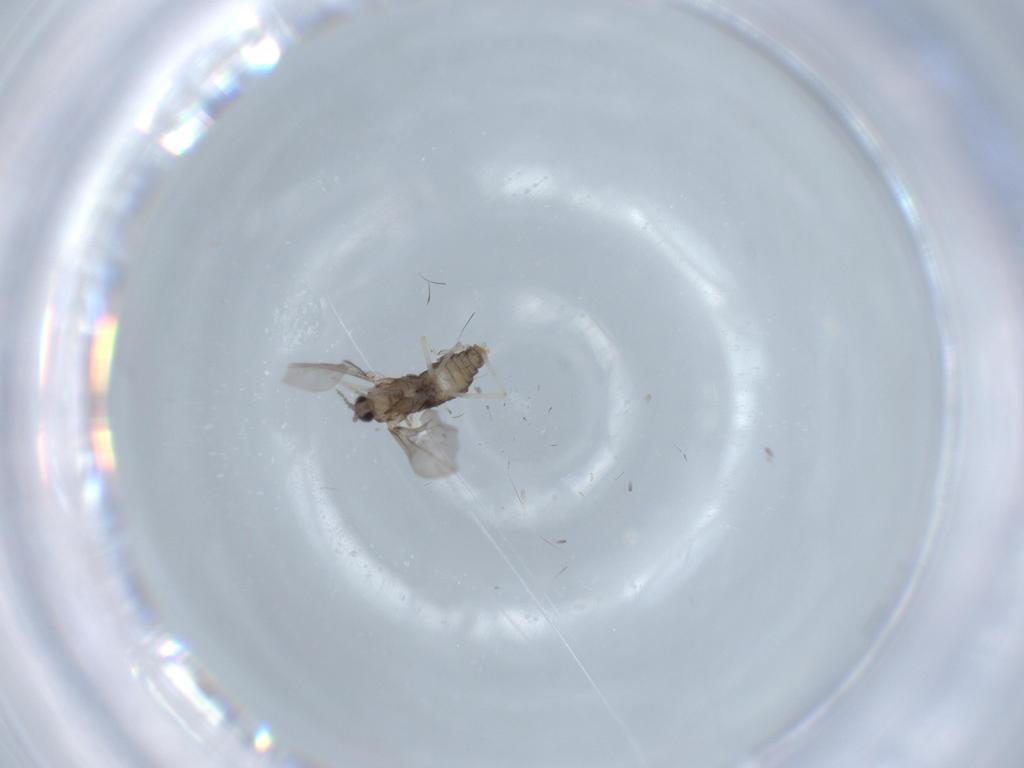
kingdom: Animalia
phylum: Arthropoda
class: Insecta
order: Diptera
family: Chironomidae
